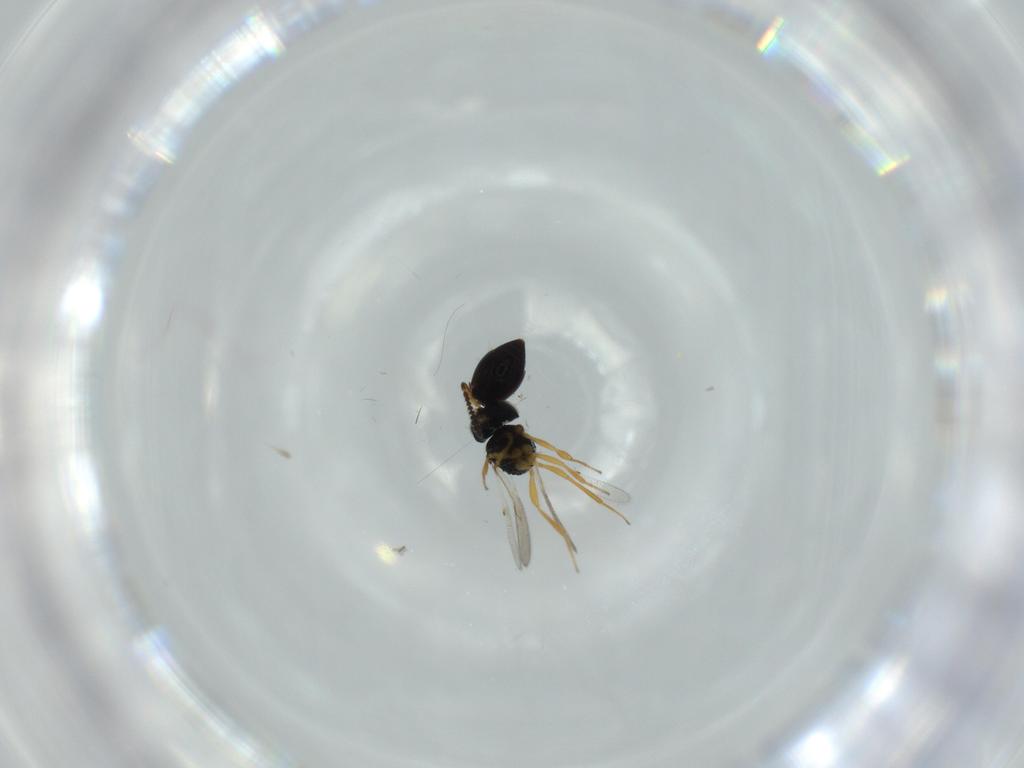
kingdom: Animalia
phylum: Arthropoda
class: Insecta
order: Hymenoptera
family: Scelionidae
